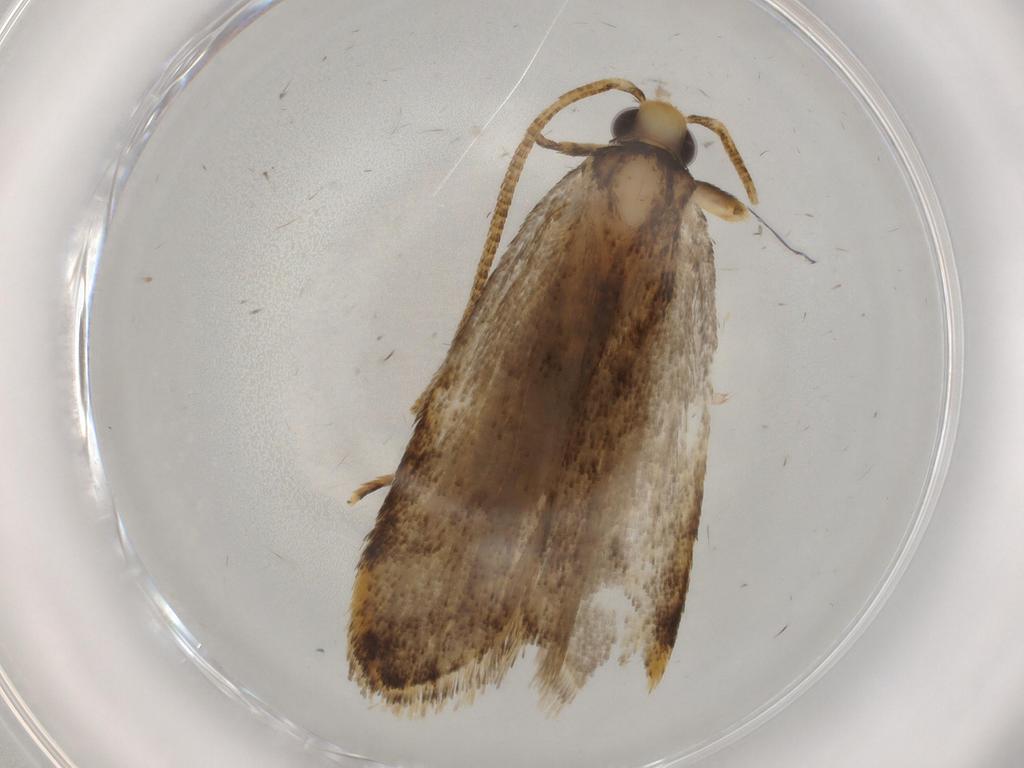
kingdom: Animalia
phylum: Arthropoda
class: Insecta
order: Lepidoptera
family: Autostichidae
